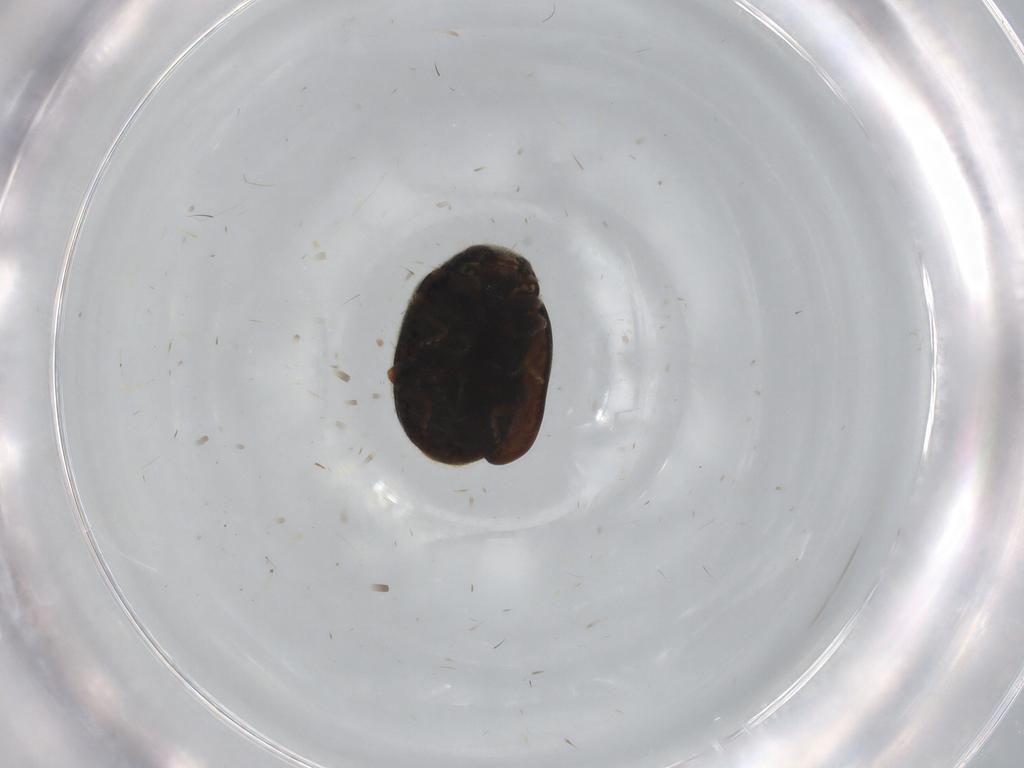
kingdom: Animalia
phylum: Arthropoda
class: Insecta
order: Coleoptera
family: Coccinellidae
